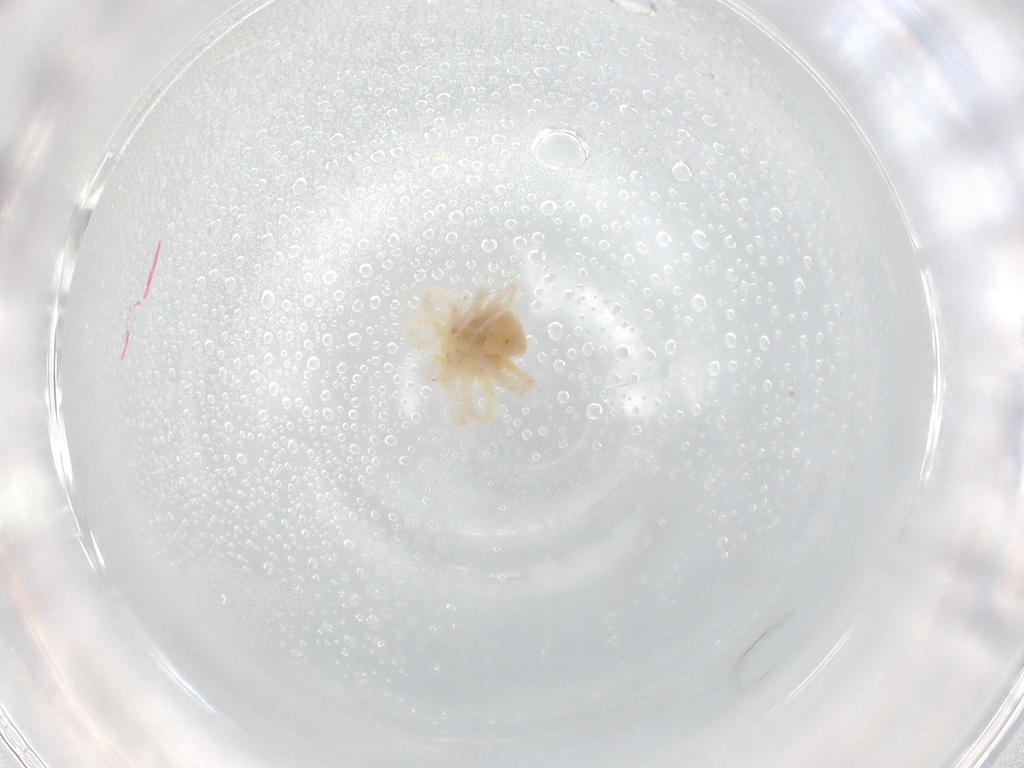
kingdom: Animalia
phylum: Arthropoda
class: Arachnida
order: Trombidiformes
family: Anystidae
